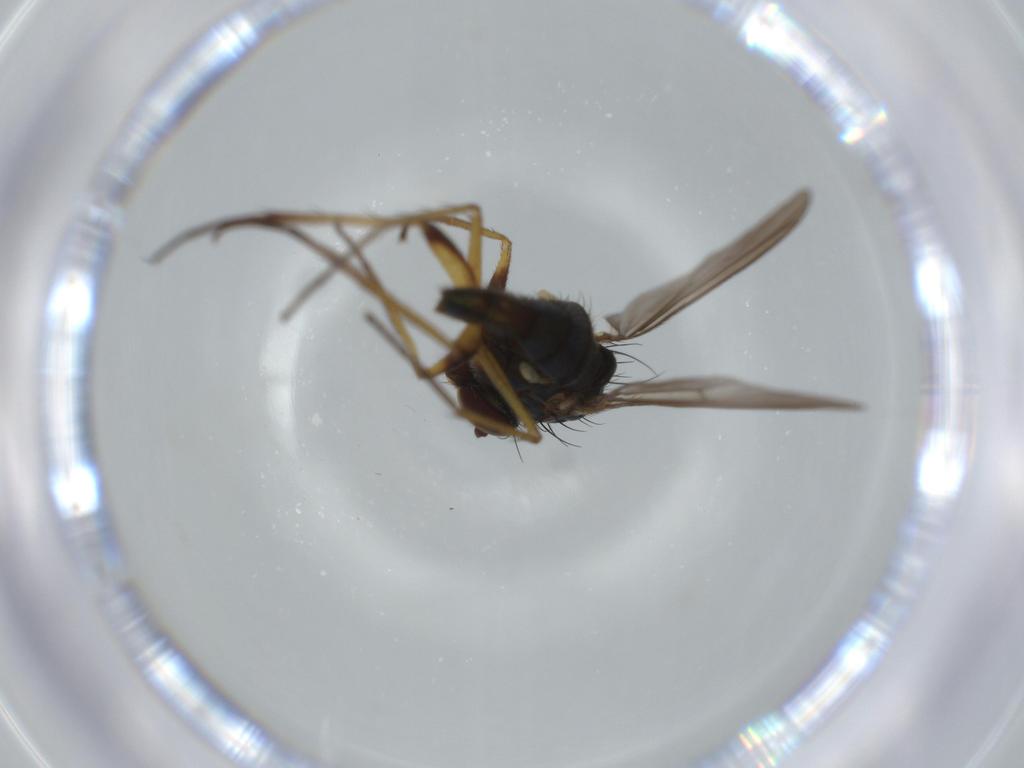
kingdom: Animalia
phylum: Arthropoda
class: Insecta
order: Diptera
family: Dolichopodidae
